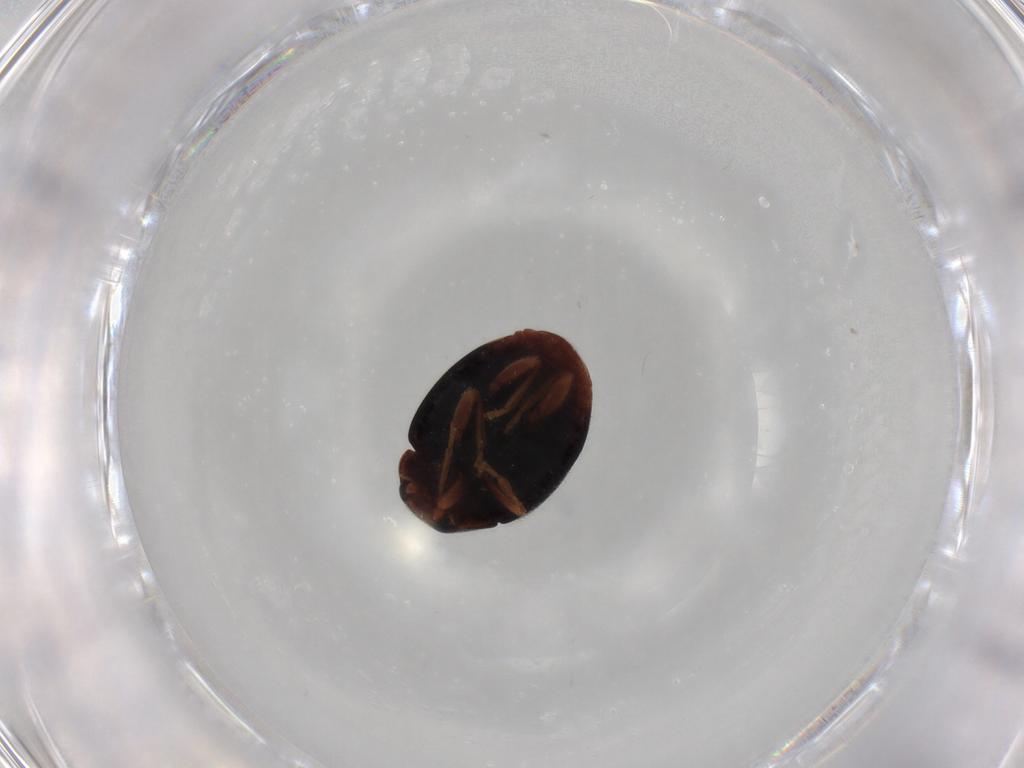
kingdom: Animalia
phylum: Arthropoda
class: Insecta
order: Coleoptera
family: Coccinellidae
